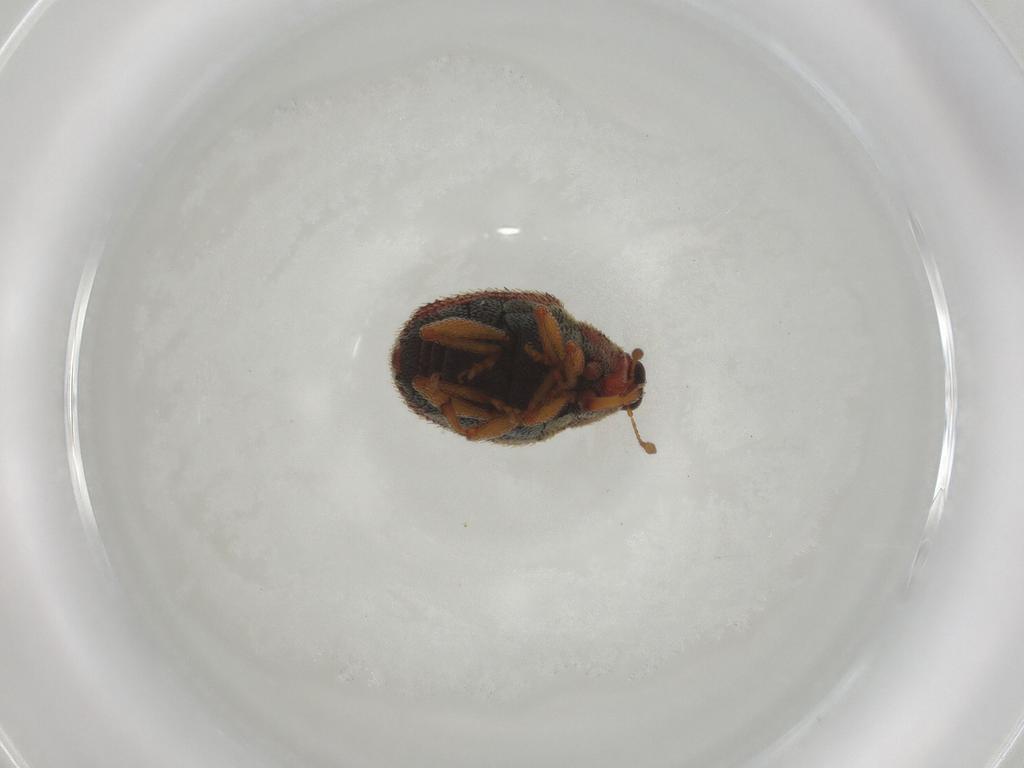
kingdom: Animalia
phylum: Arthropoda
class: Insecta
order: Coleoptera
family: Curculionidae
